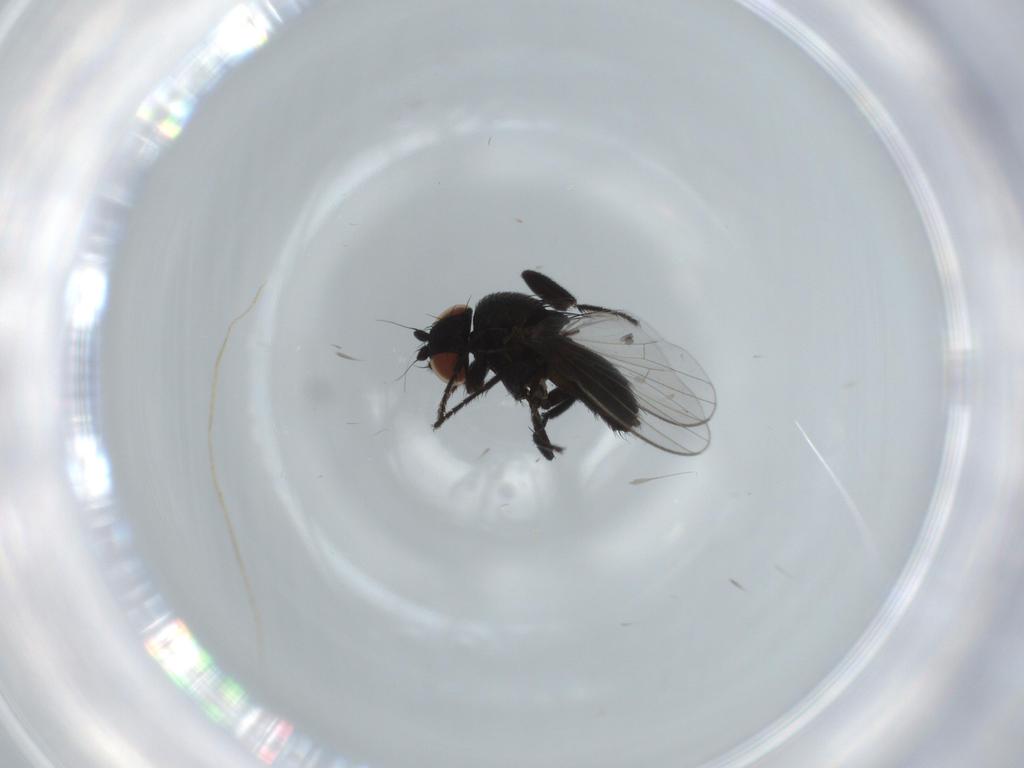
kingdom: Animalia
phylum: Arthropoda
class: Insecta
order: Diptera
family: Milichiidae
